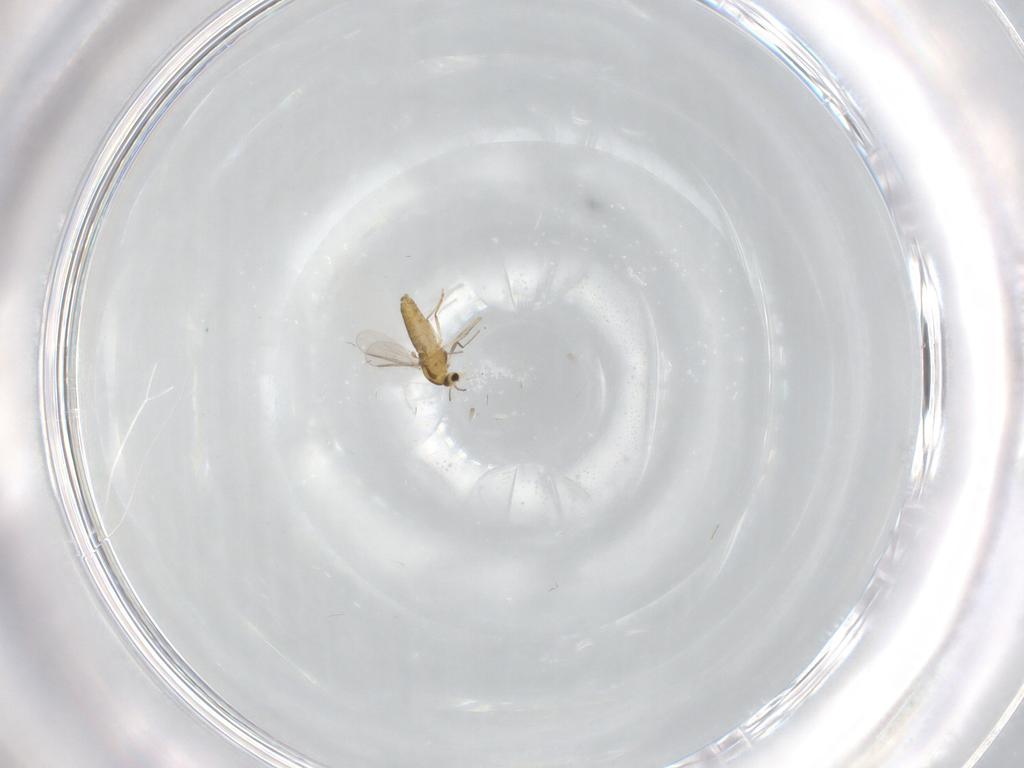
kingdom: Animalia
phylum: Arthropoda
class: Insecta
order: Diptera
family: Chironomidae
